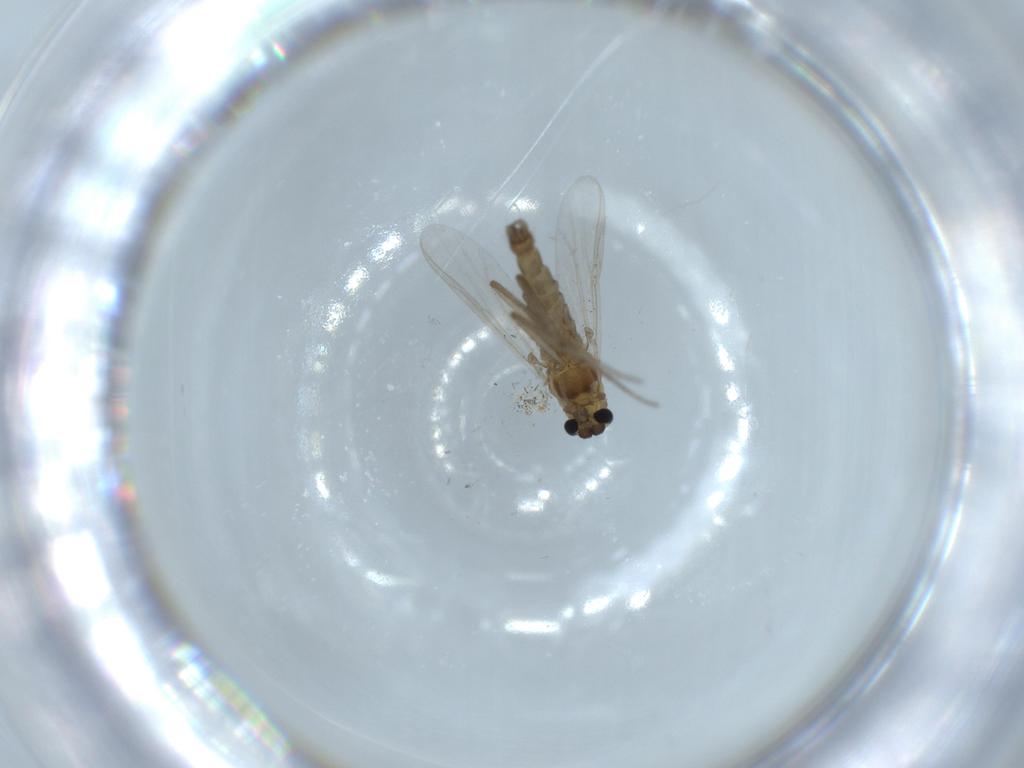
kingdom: Animalia
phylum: Arthropoda
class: Insecta
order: Diptera
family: Chironomidae
